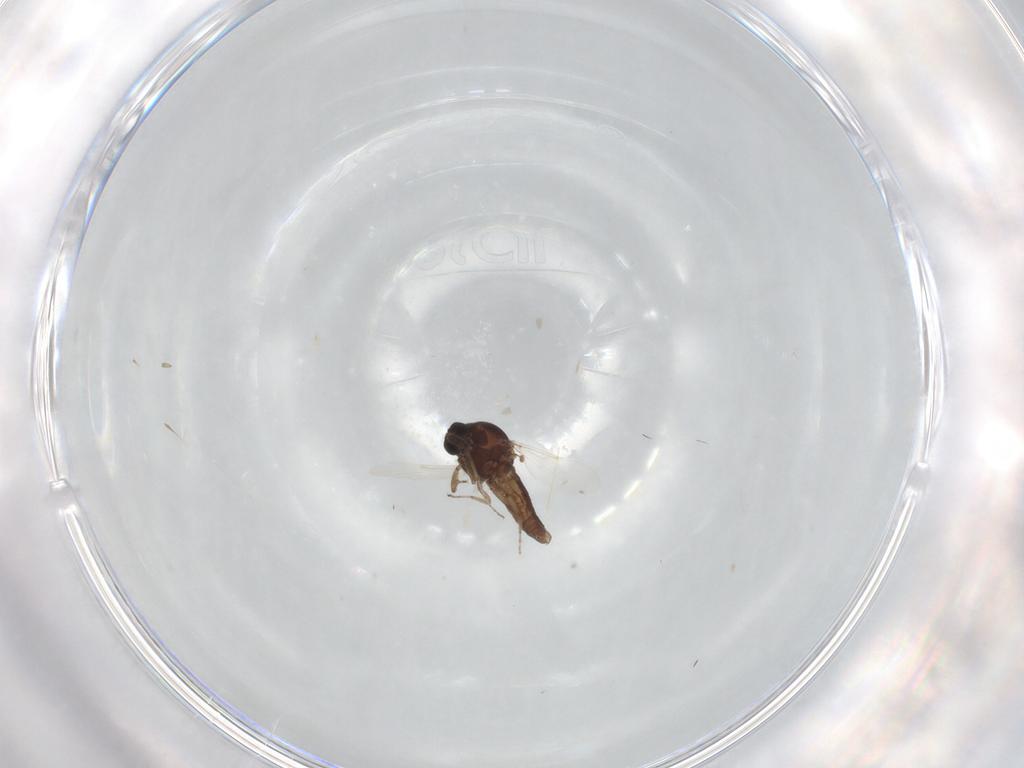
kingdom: Animalia
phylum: Arthropoda
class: Insecta
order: Diptera
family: Ceratopogonidae
